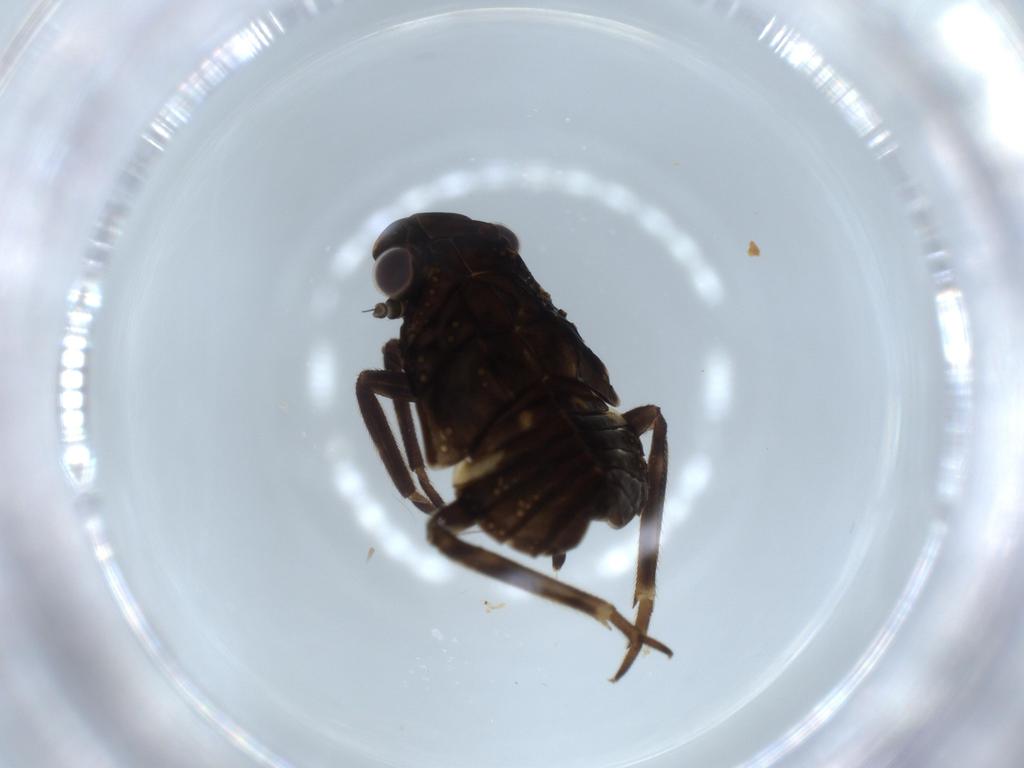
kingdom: Animalia
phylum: Arthropoda
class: Insecta
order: Hemiptera
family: Fulgoridae
